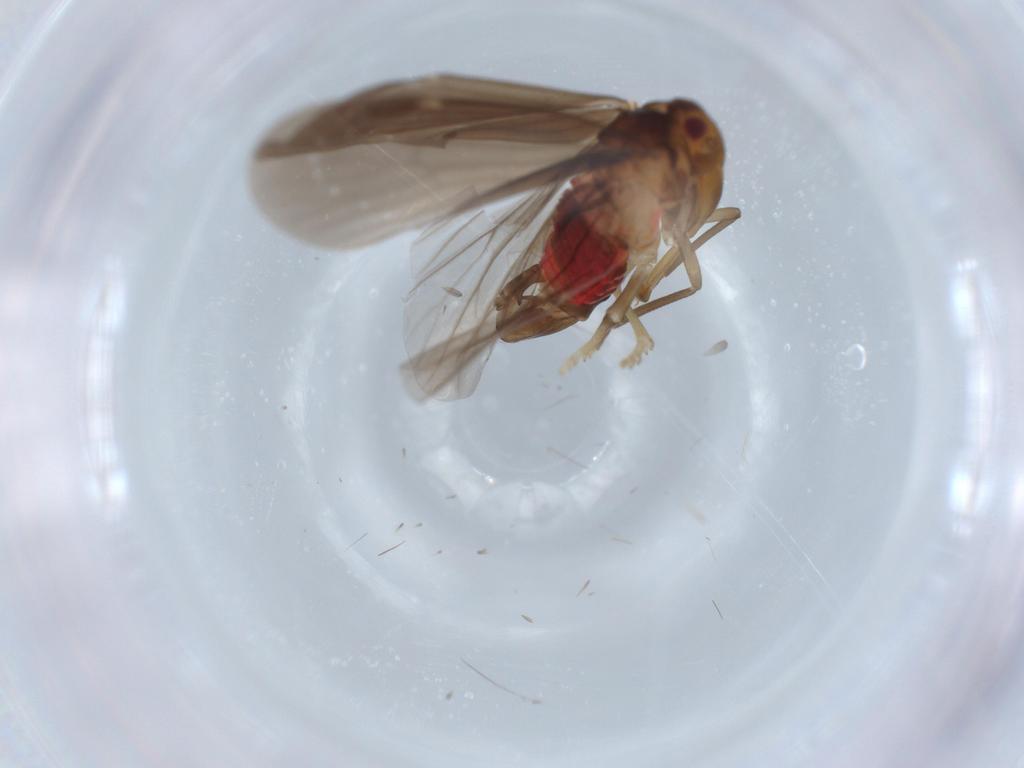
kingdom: Animalia
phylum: Arthropoda
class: Insecta
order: Hemiptera
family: Derbidae
